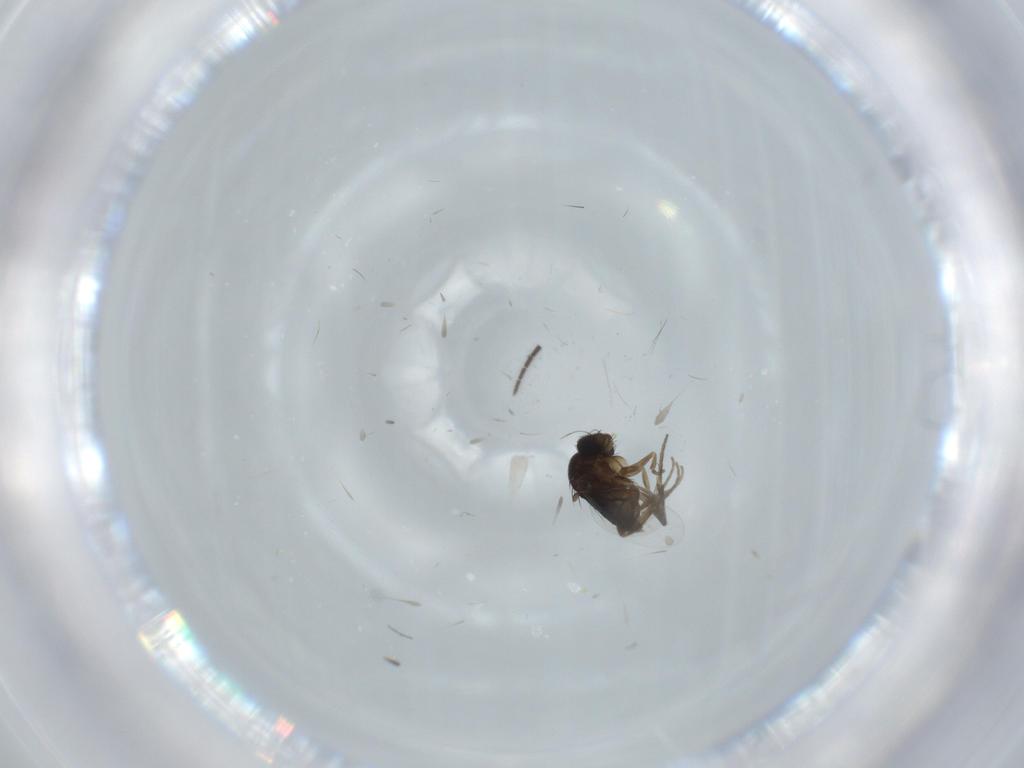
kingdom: Animalia
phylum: Arthropoda
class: Insecta
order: Diptera
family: Phoridae
